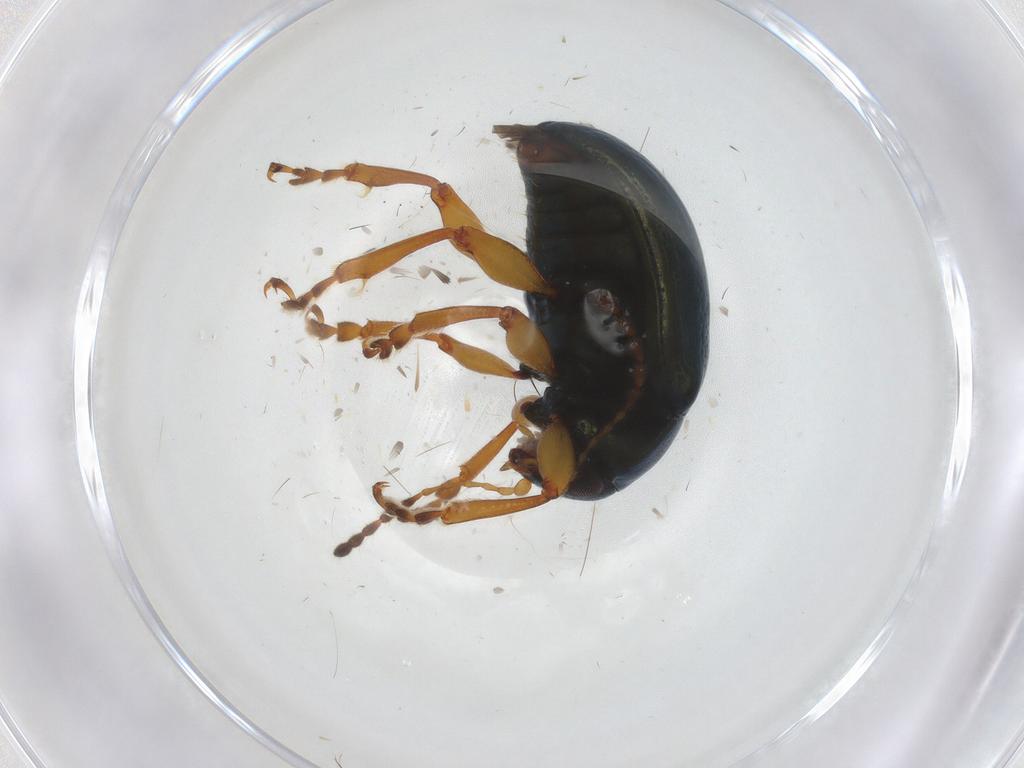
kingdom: Animalia
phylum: Arthropoda
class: Insecta
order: Coleoptera
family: Chrysomelidae
